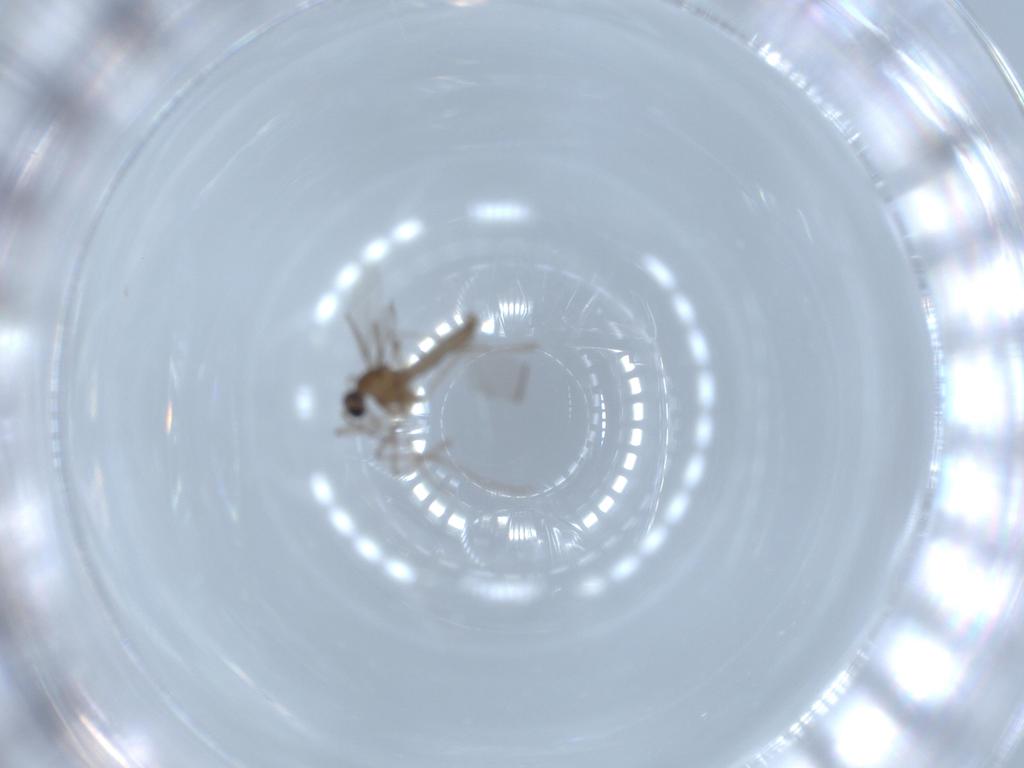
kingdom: Animalia
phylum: Arthropoda
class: Insecta
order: Diptera
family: Cecidomyiidae
